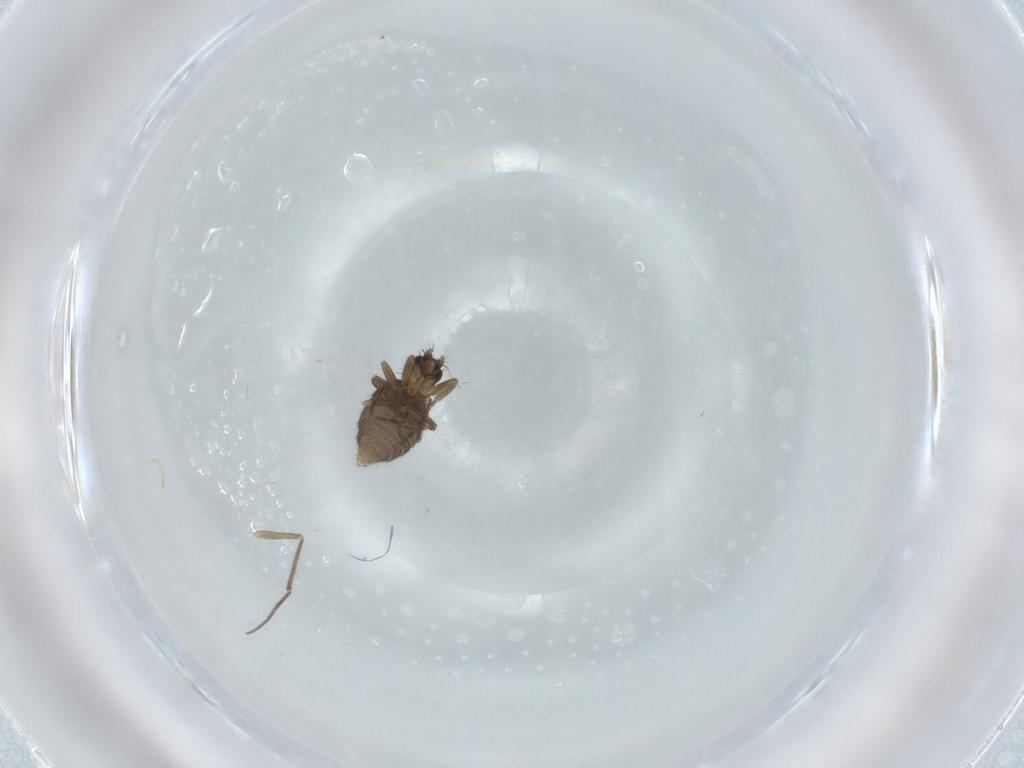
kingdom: Animalia
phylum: Arthropoda
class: Insecta
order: Diptera
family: Phoridae
